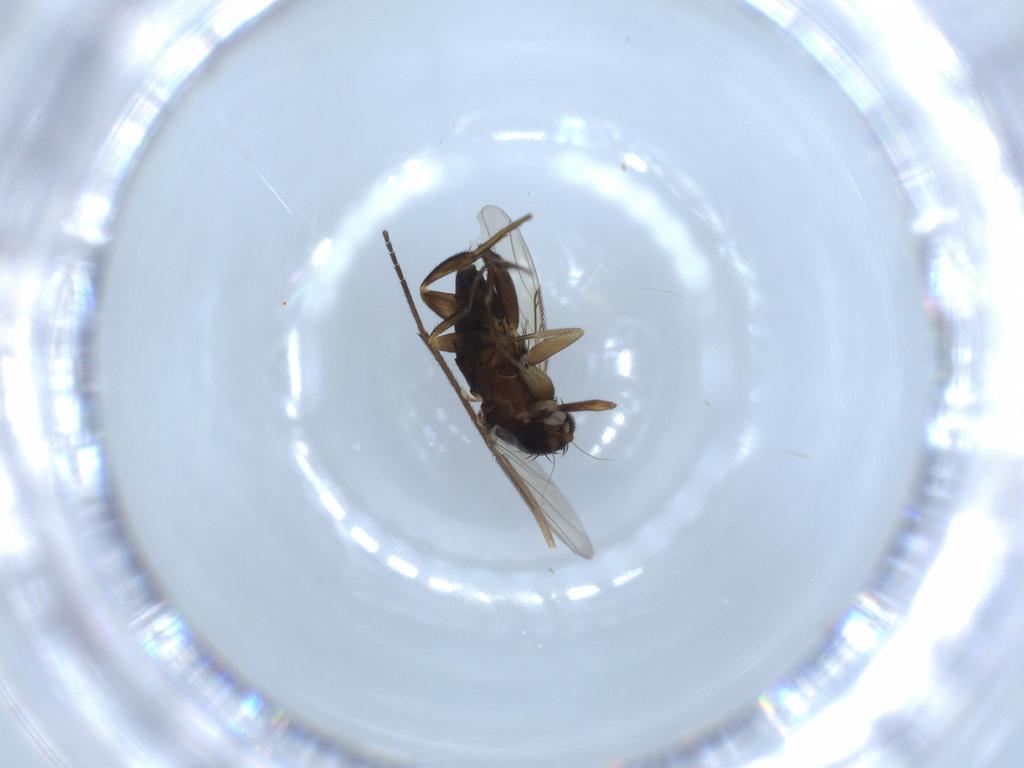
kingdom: Animalia
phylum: Arthropoda
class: Insecta
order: Diptera
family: Phoridae
